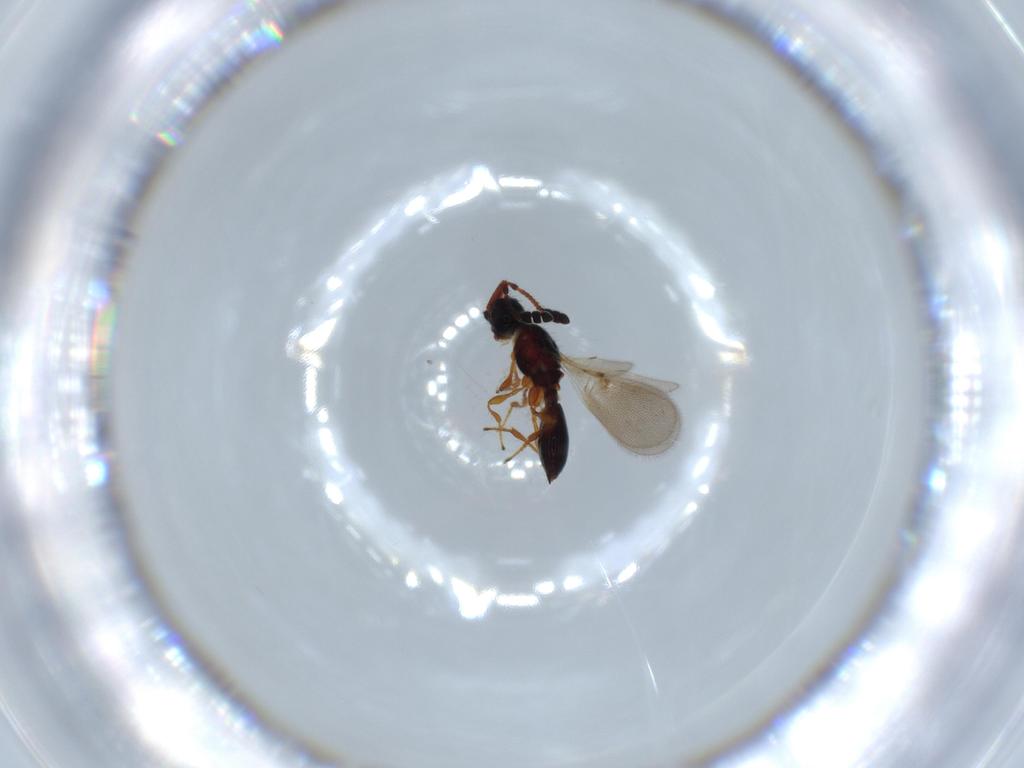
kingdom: Animalia
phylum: Arthropoda
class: Insecta
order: Hymenoptera
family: Diapriidae
